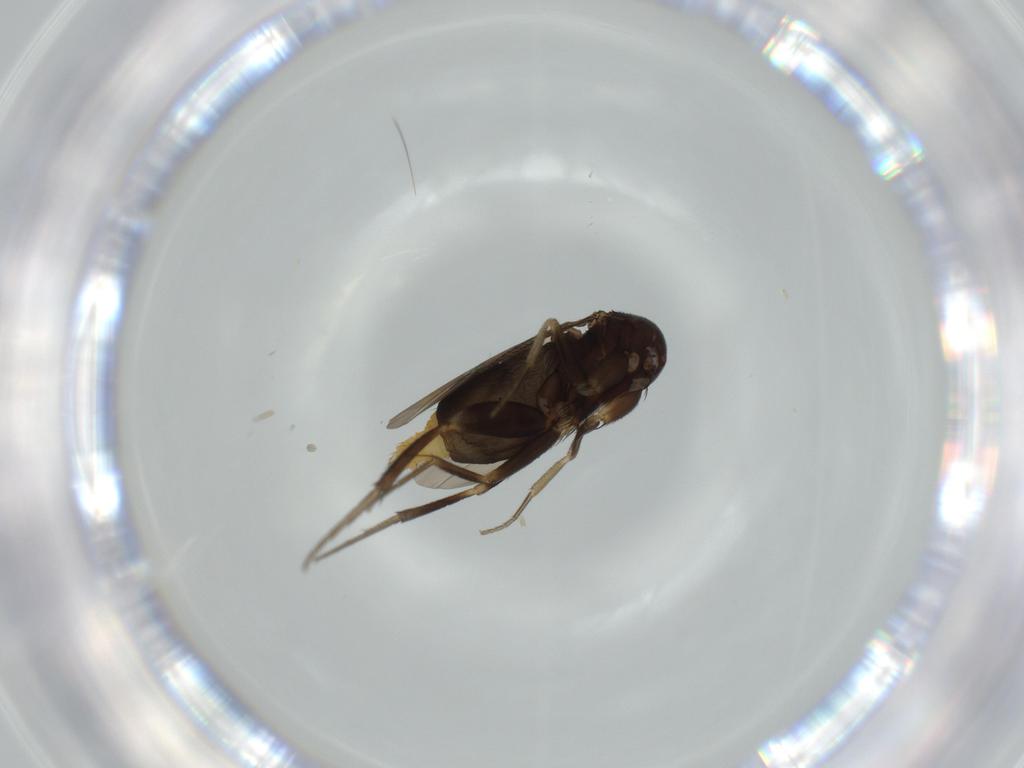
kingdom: Animalia
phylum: Arthropoda
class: Insecta
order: Diptera
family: Phoridae
